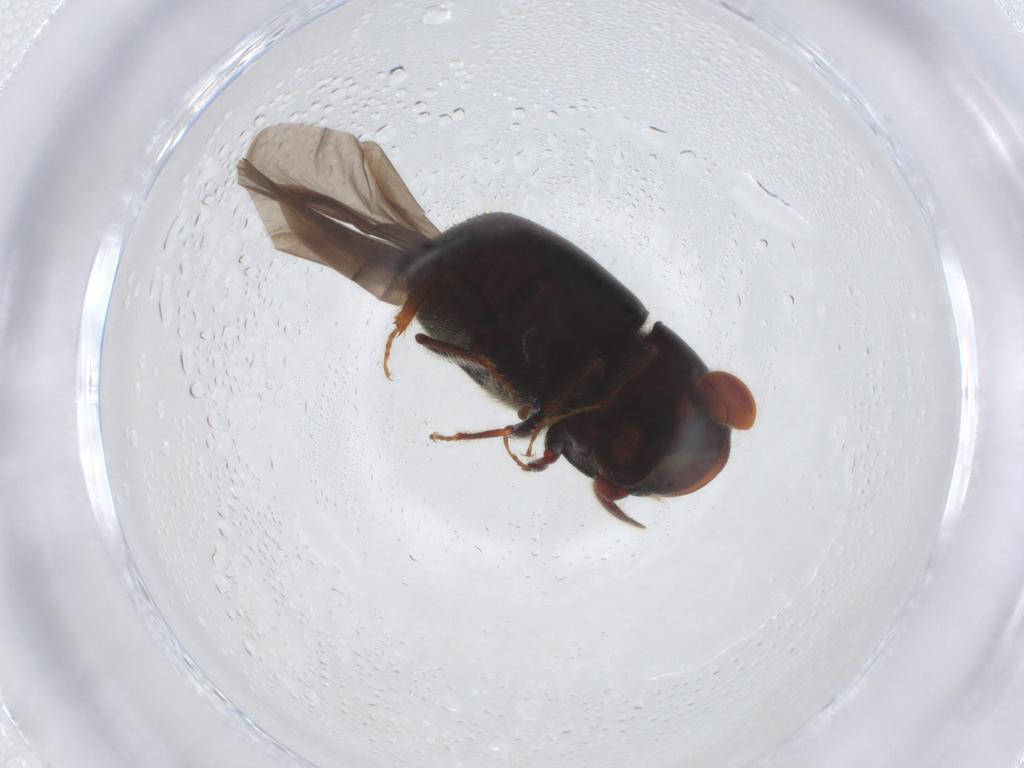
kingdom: Animalia
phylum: Arthropoda
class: Insecta
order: Coleoptera
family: Curculionidae
